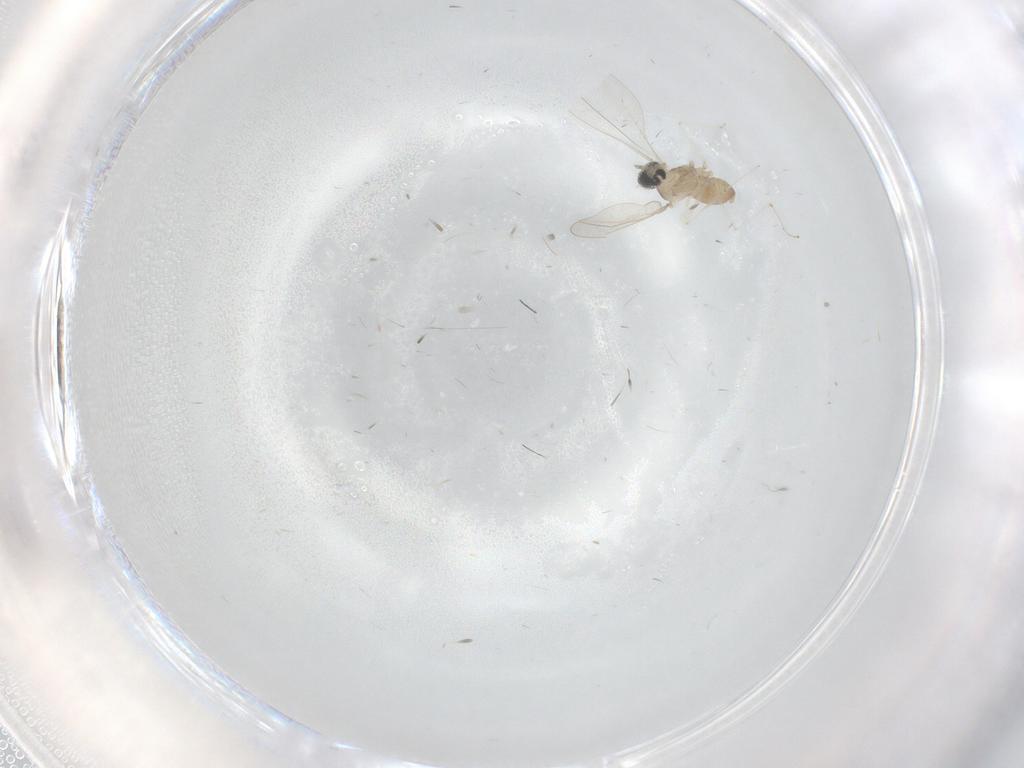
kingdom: Animalia
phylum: Arthropoda
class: Insecta
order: Diptera
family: Cecidomyiidae
